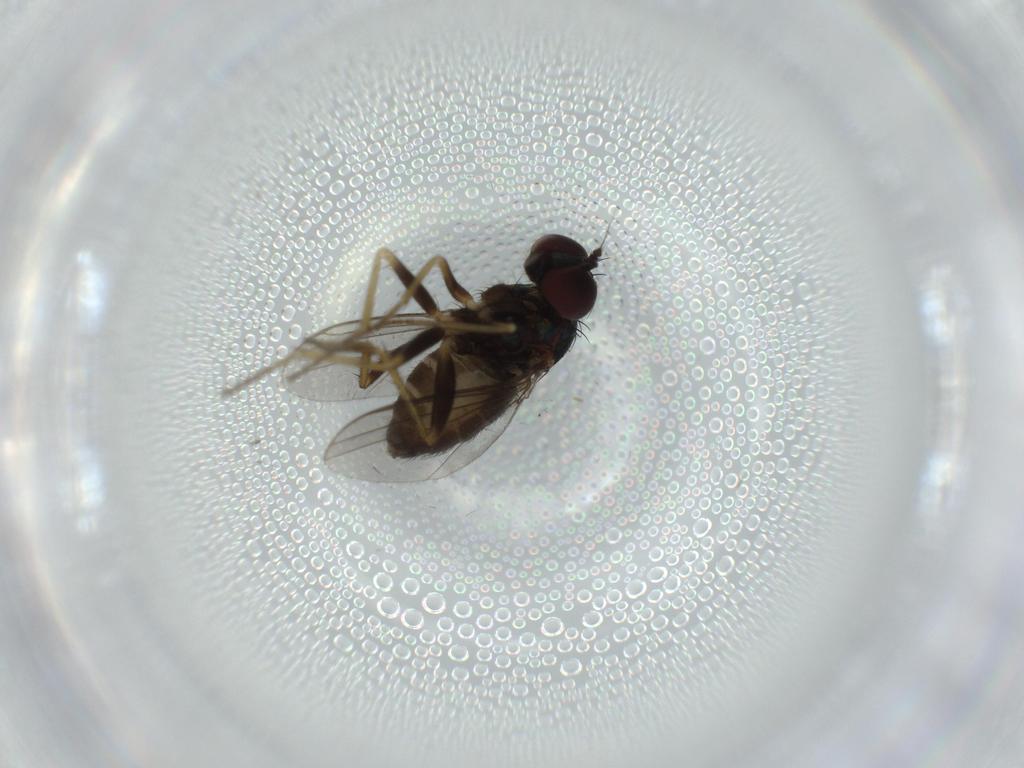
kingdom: Animalia
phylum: Arthropoda
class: Insecta
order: Diptera
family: Dolichopodidae
